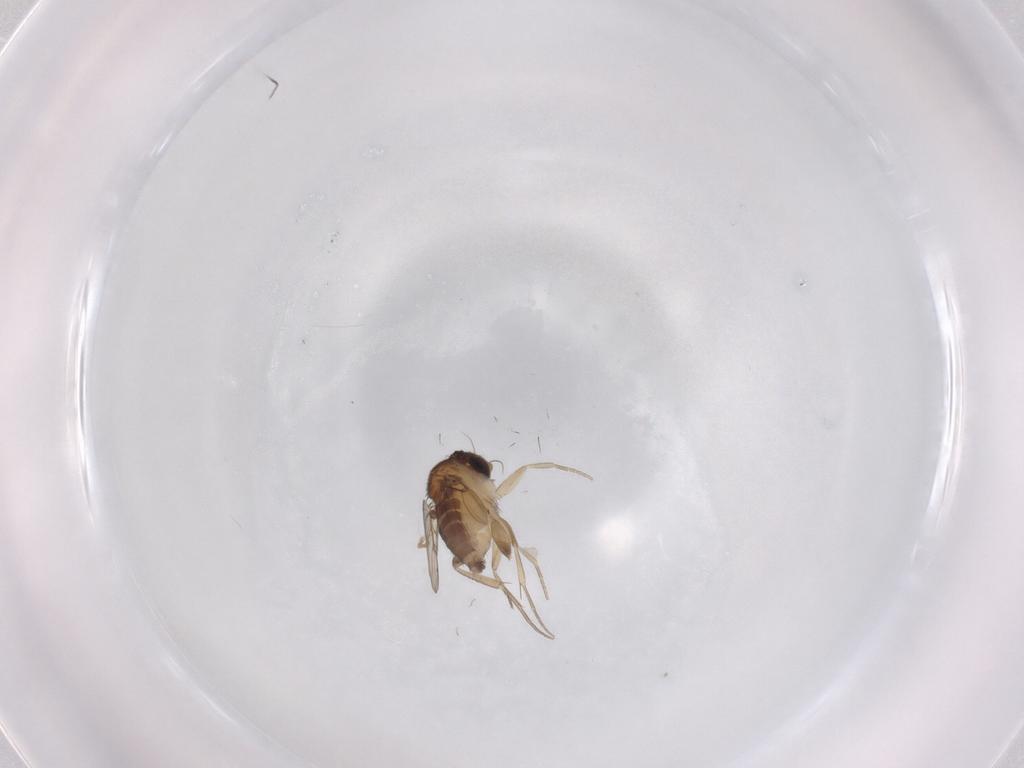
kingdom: Animalia
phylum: Arthropoda
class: Insecta
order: Diptera
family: Phoridae
